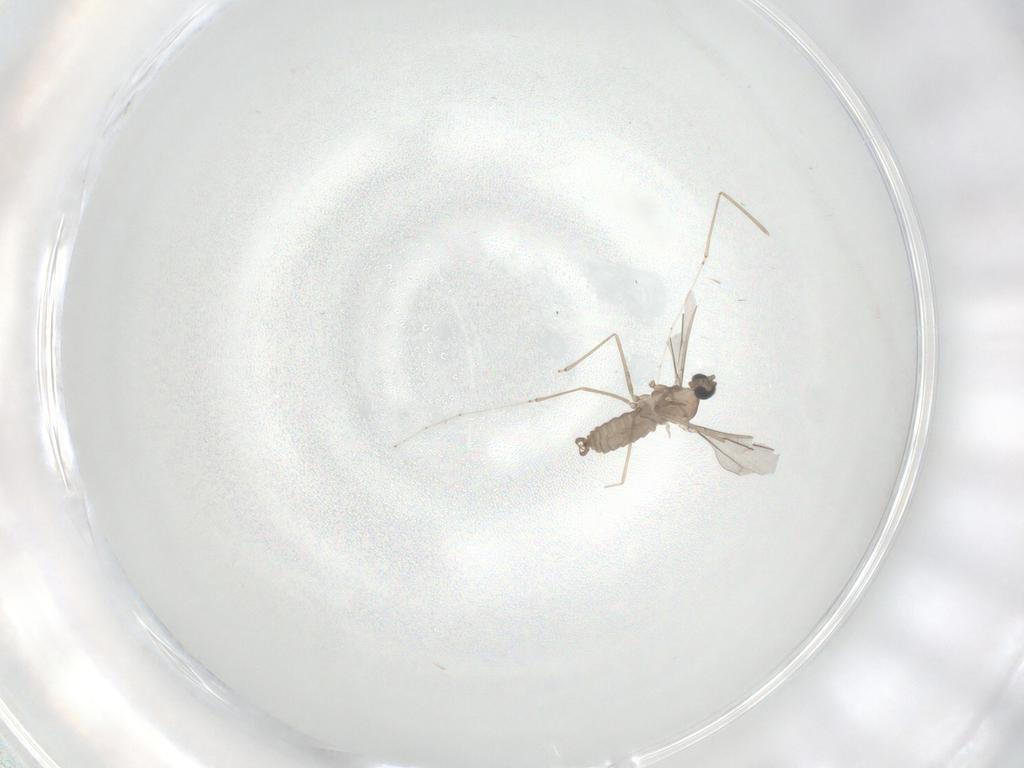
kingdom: Animalia
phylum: Arthropoda
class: Insecta
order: Diptera
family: Cecidomyiidae
